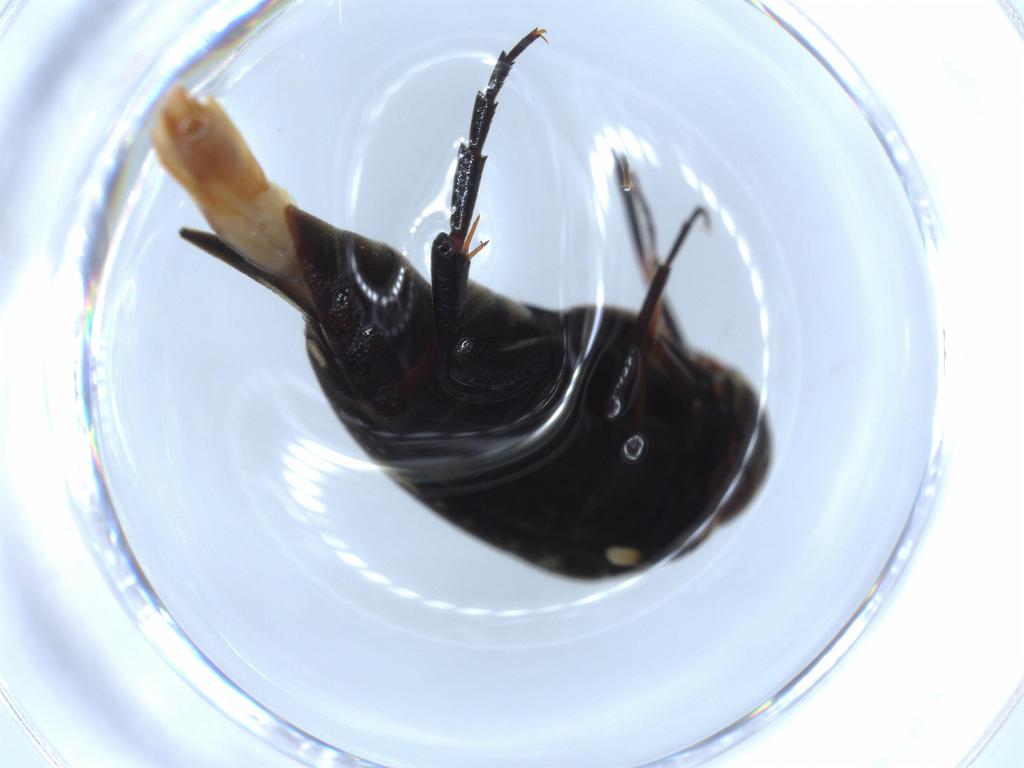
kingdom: Animalia
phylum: Arthropoda
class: Insecta
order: Coleoptera
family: Anthribidae
